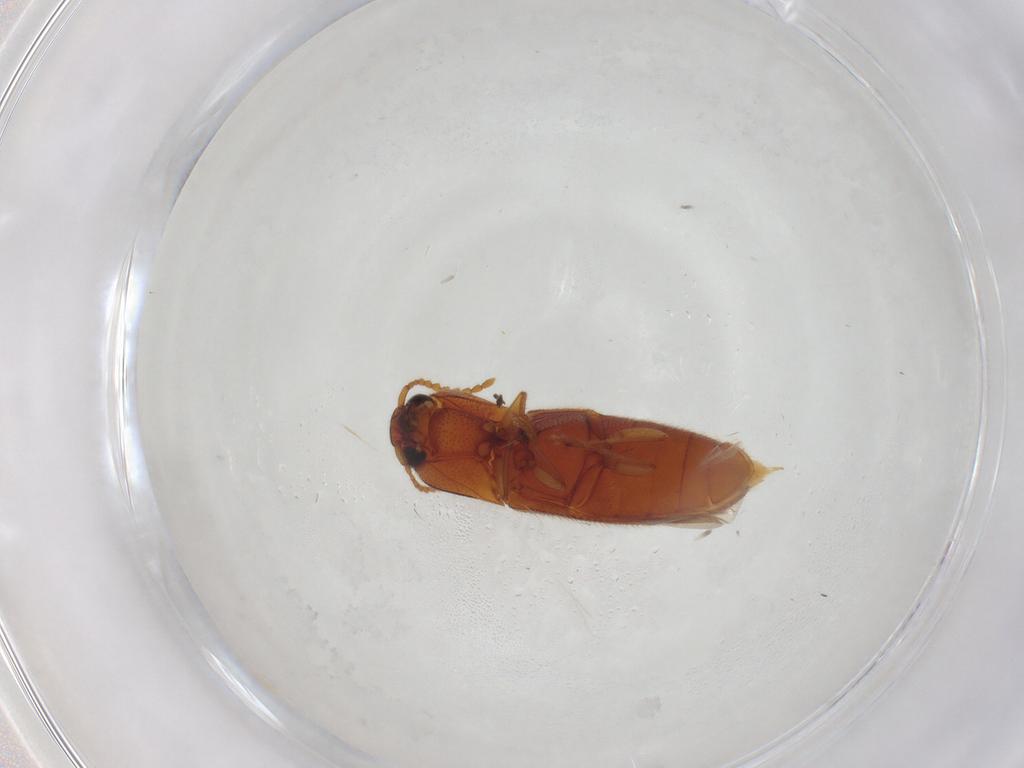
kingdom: Animalia
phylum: Arthropoda
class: Insecta
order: Coleoptera
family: Elateridae
